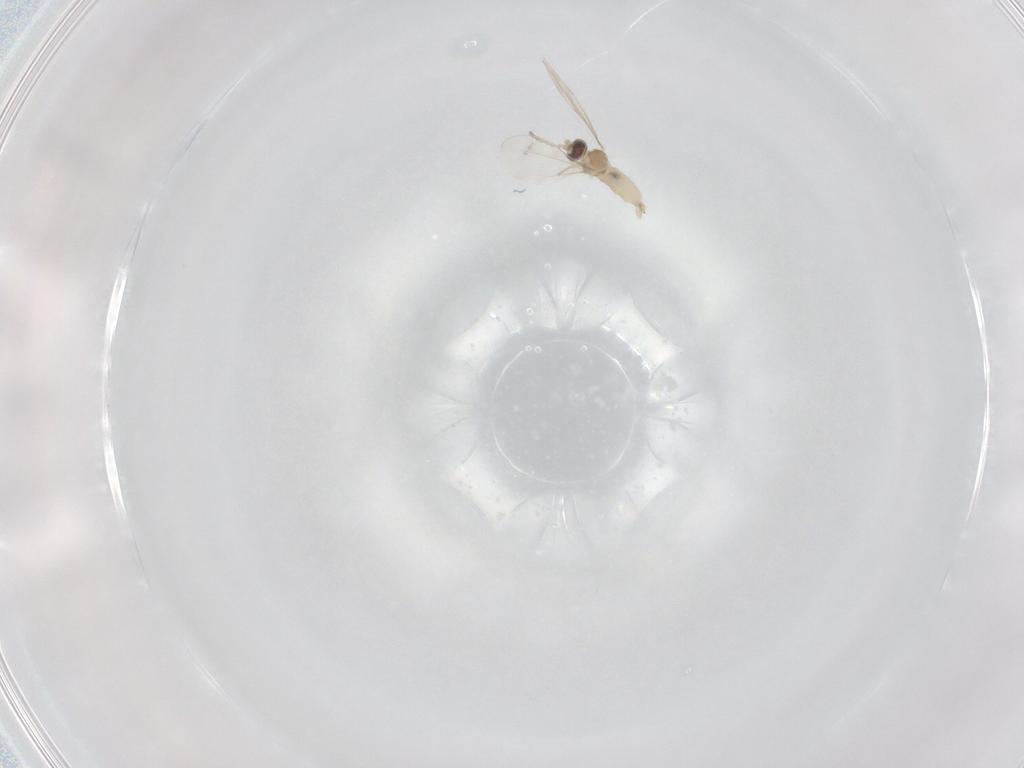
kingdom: Animalia
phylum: Arthropoda
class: Insecta
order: Diptera
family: Cecidomyiidae
